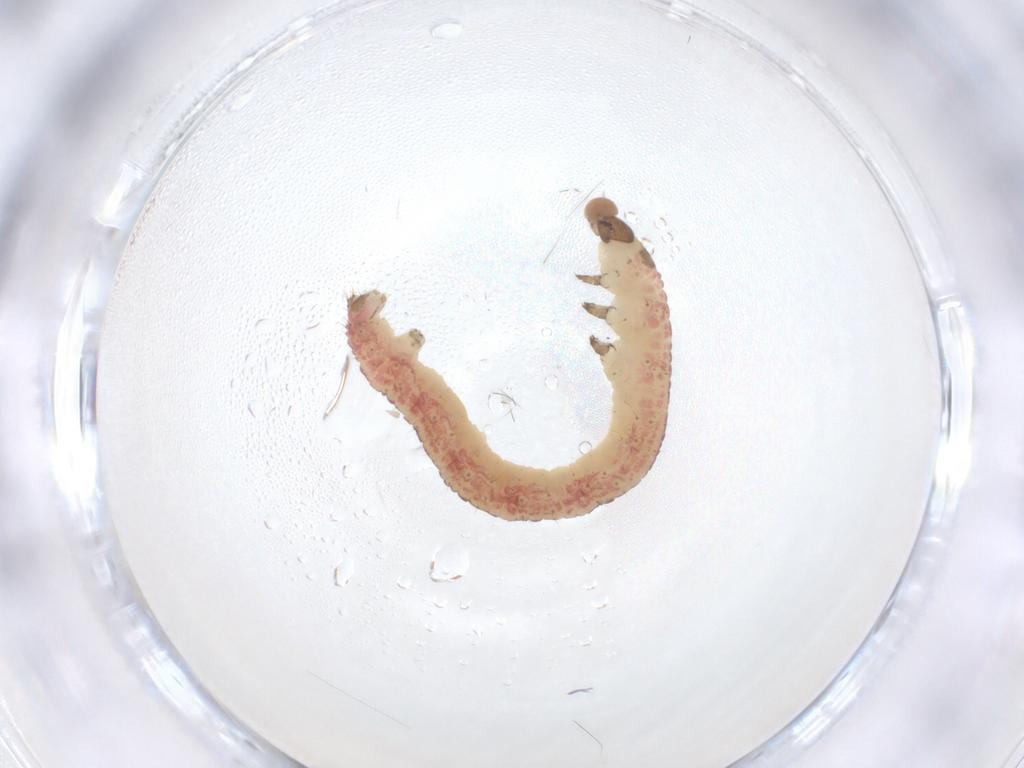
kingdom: Animalia
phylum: Arthropoda
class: Insecta
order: Lepidoptera
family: Geometridae
